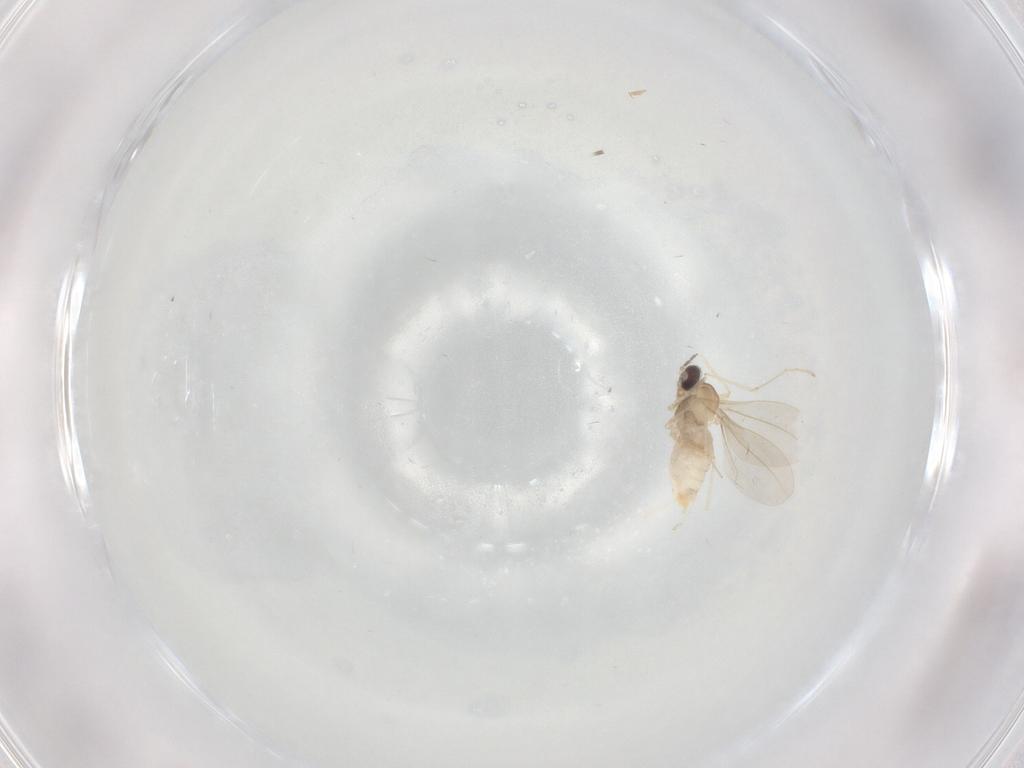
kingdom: Animalia
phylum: Arthropoda
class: Insecta
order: Diptera
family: Cecidomyiidae
